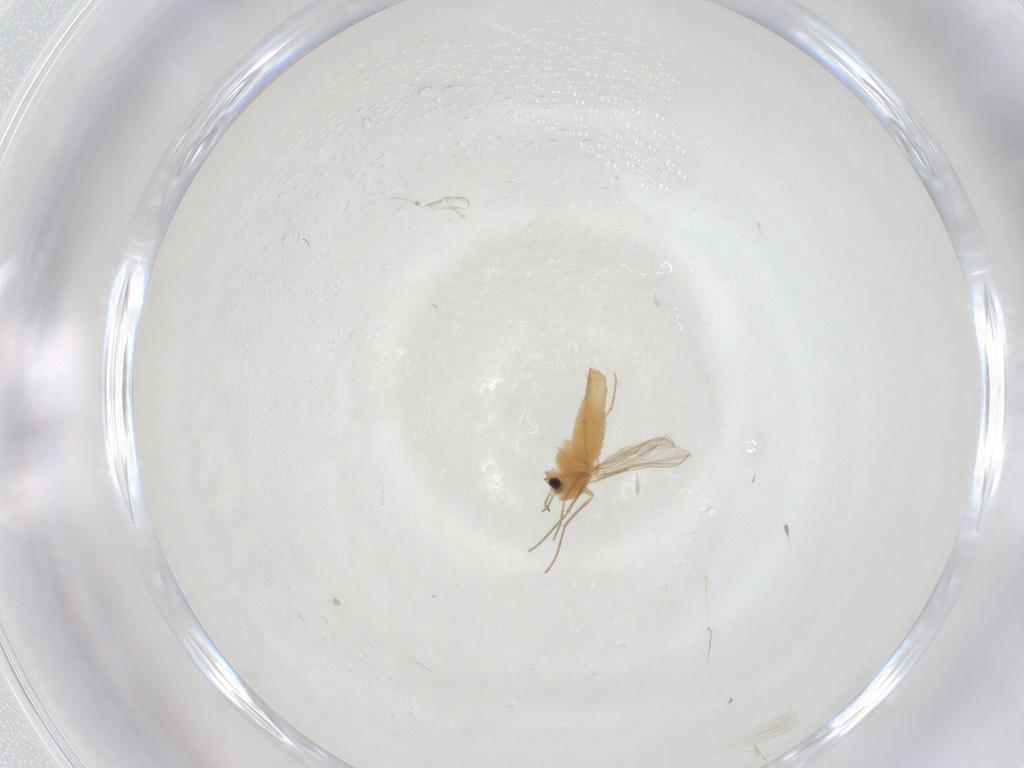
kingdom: Animalia
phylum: Arthropoda
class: Insecta
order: Diptera
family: Chironomidae
